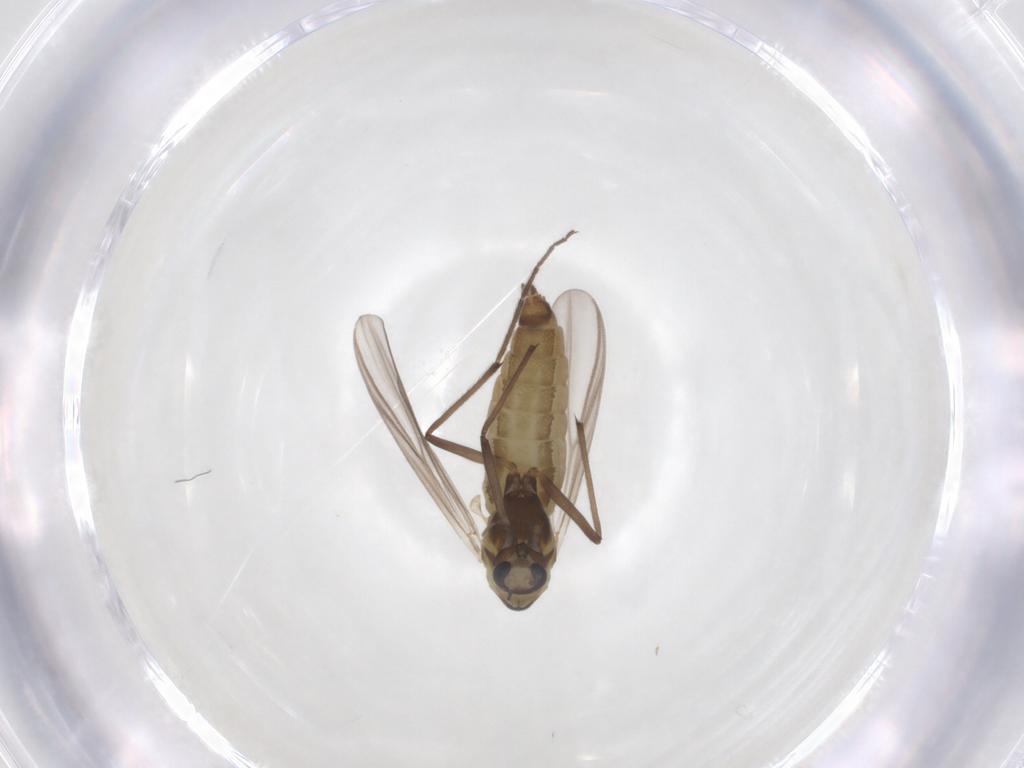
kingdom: Animalia
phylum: Arthropoda
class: Insecta
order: Diptera
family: Chironomidae
